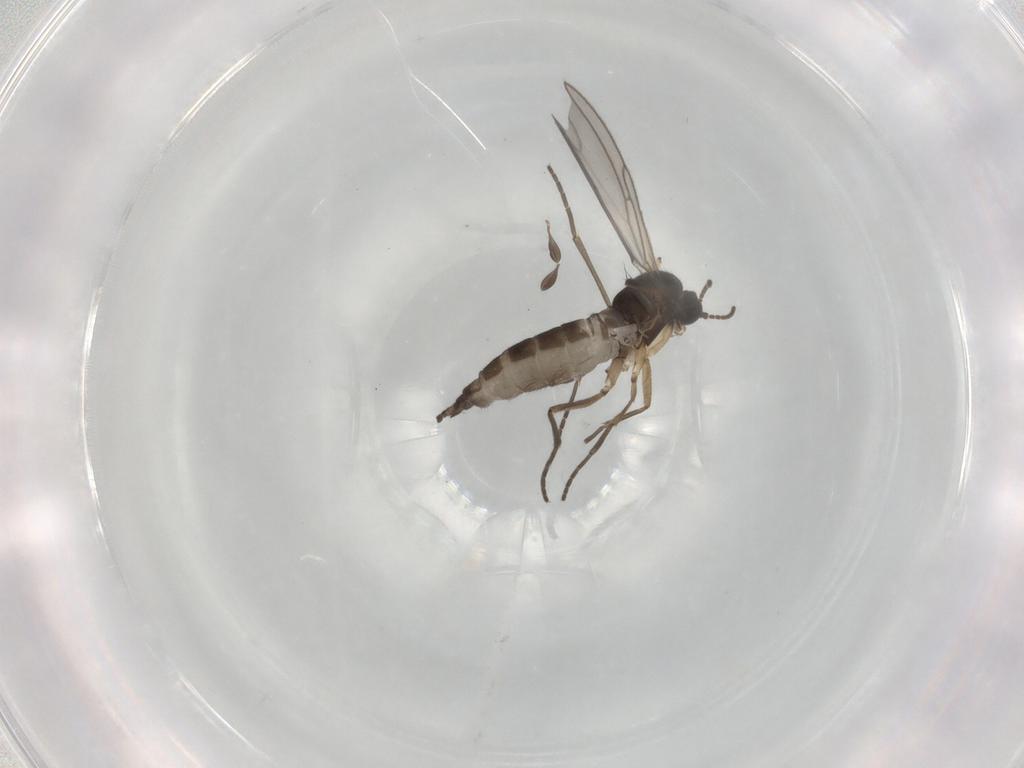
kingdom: Animalia
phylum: Arthropoda
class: Insecta
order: Diptera
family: Sciaridae
